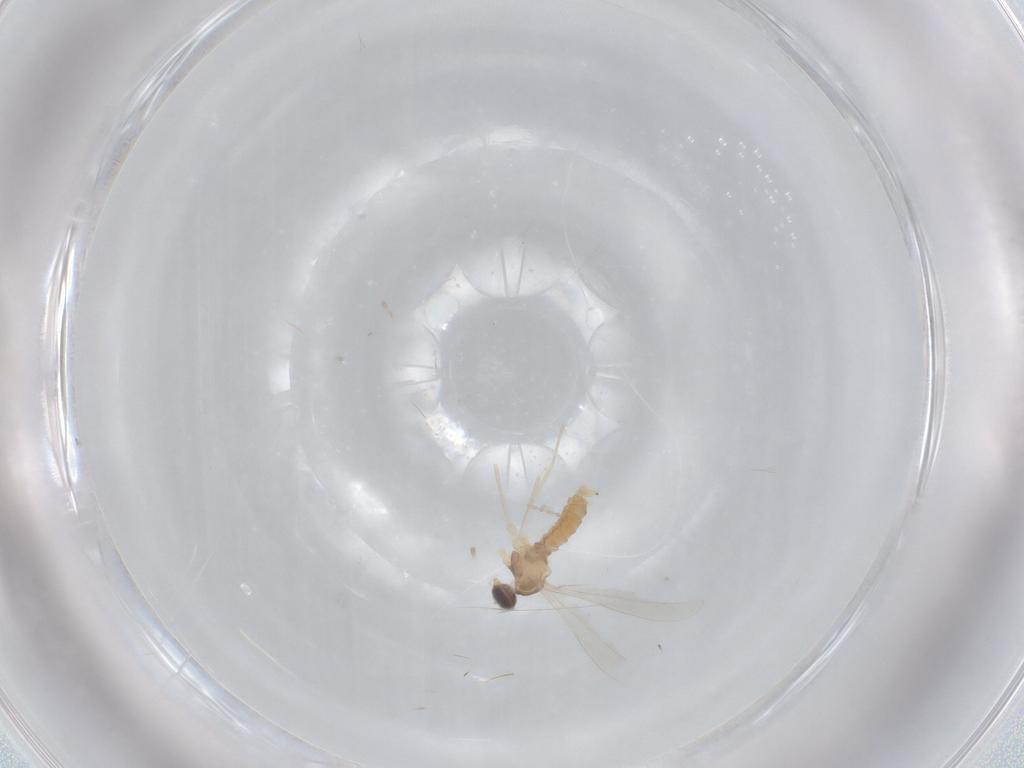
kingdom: Animalia
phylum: Arthropoda
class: Insecta
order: Diptera
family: Cecidomyiidae
